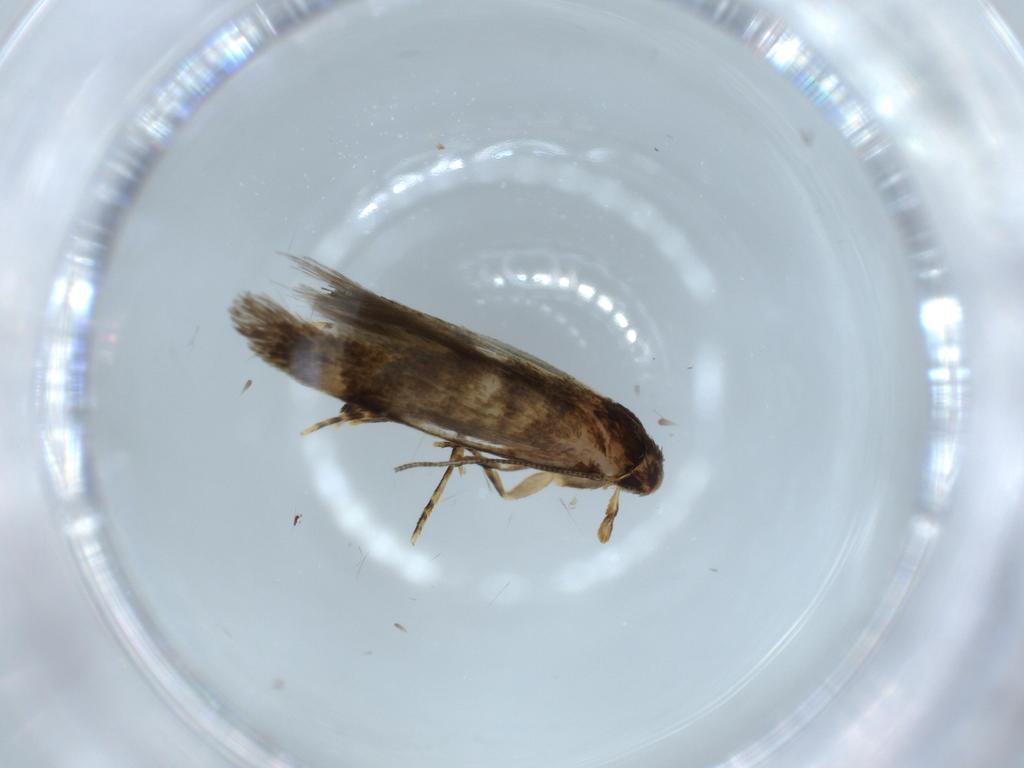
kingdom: Animalia
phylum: Arthropoda
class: Insecta
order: Lepidoptera
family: Tineidae
